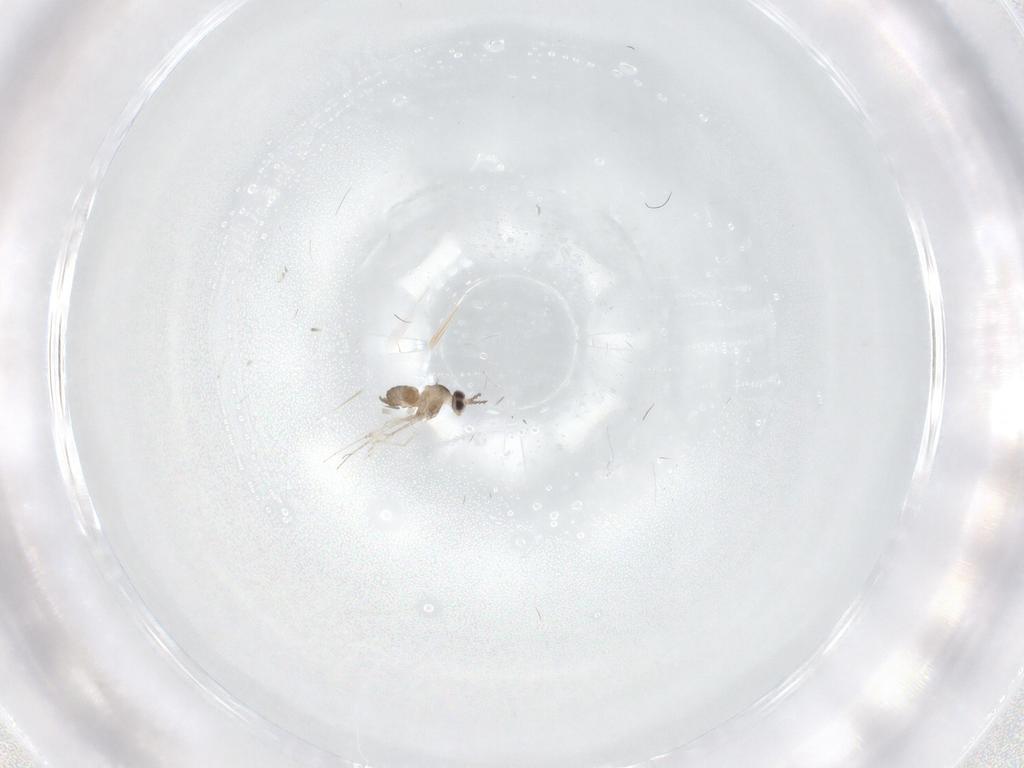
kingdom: Animalia
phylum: Arthropoda
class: Insecta
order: Diptera
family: Cecidomyiidae
